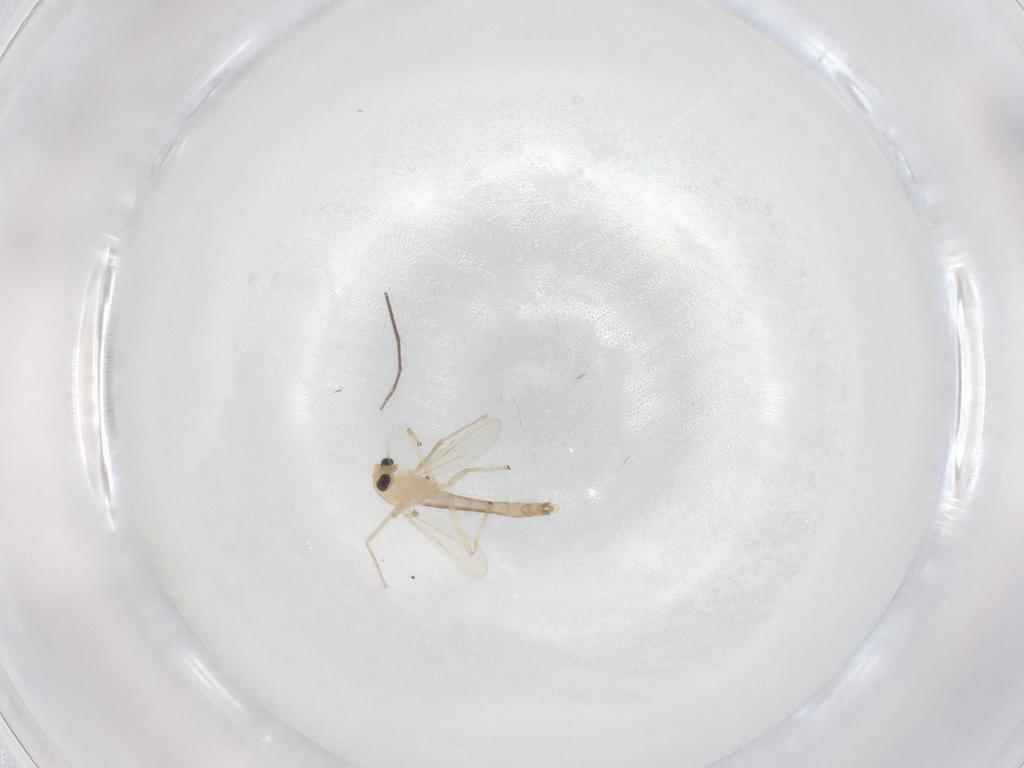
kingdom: Animalia
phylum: Arthropoda
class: Insecta
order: Diptera
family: Chironomidae
